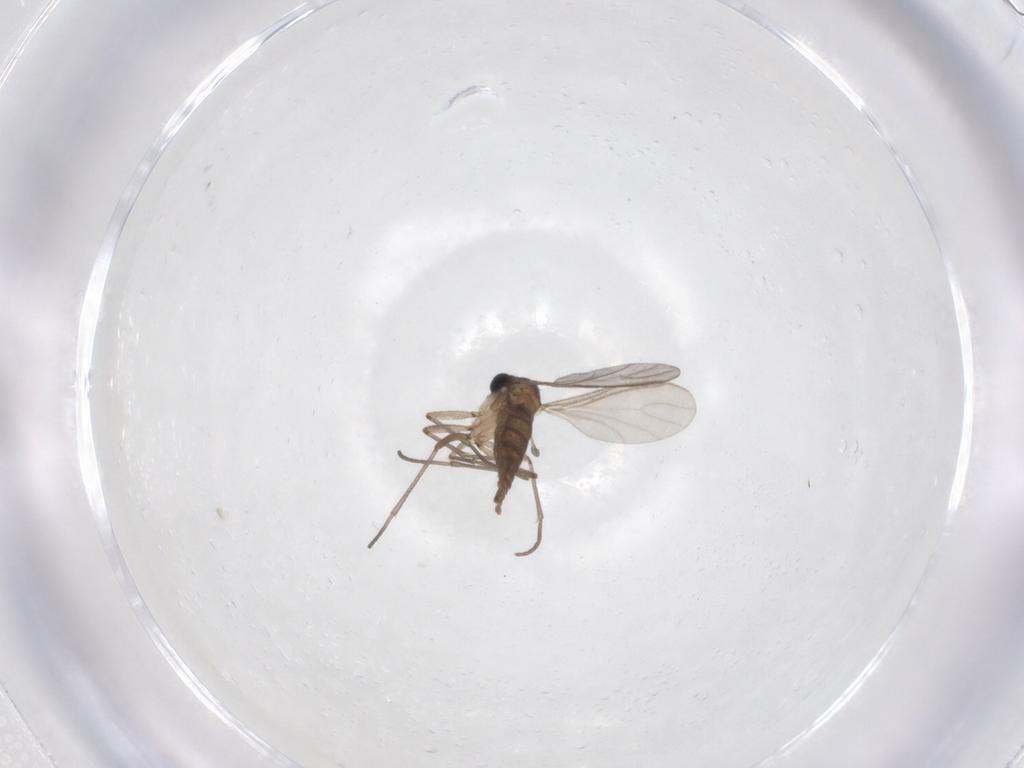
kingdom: Animalia
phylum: Arthropoda
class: Insecta
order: Diptera
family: Sciaridae
